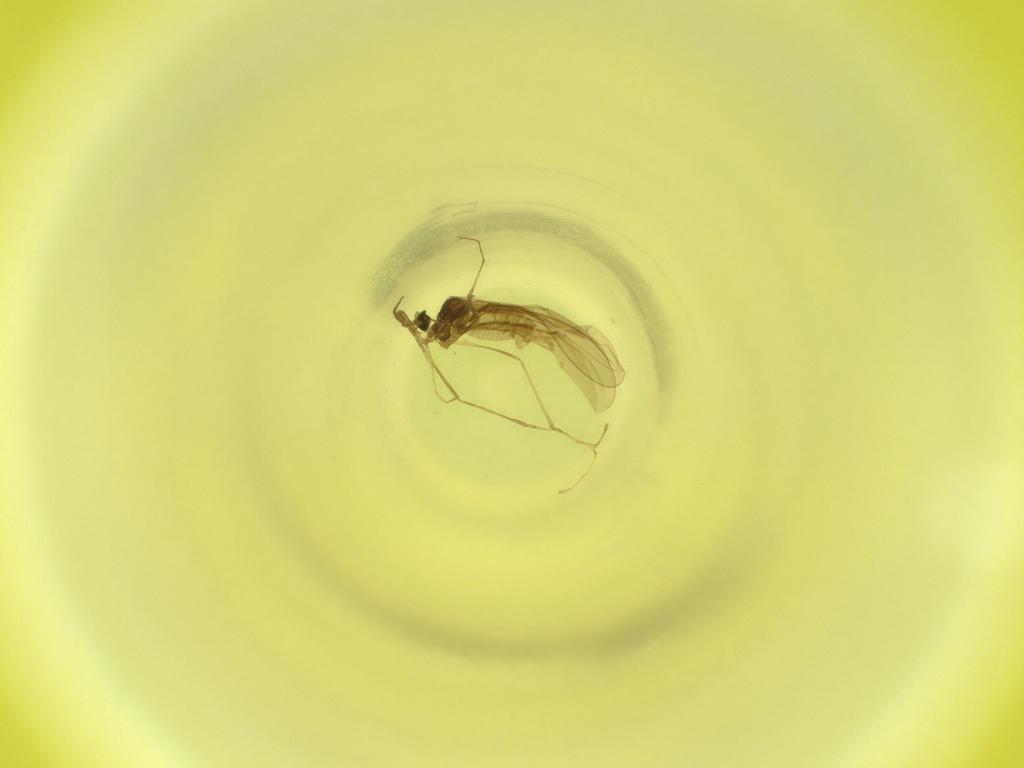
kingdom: Animalia
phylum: Arthropoda
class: Insecta
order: Diptera
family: Cecidomyiidae
